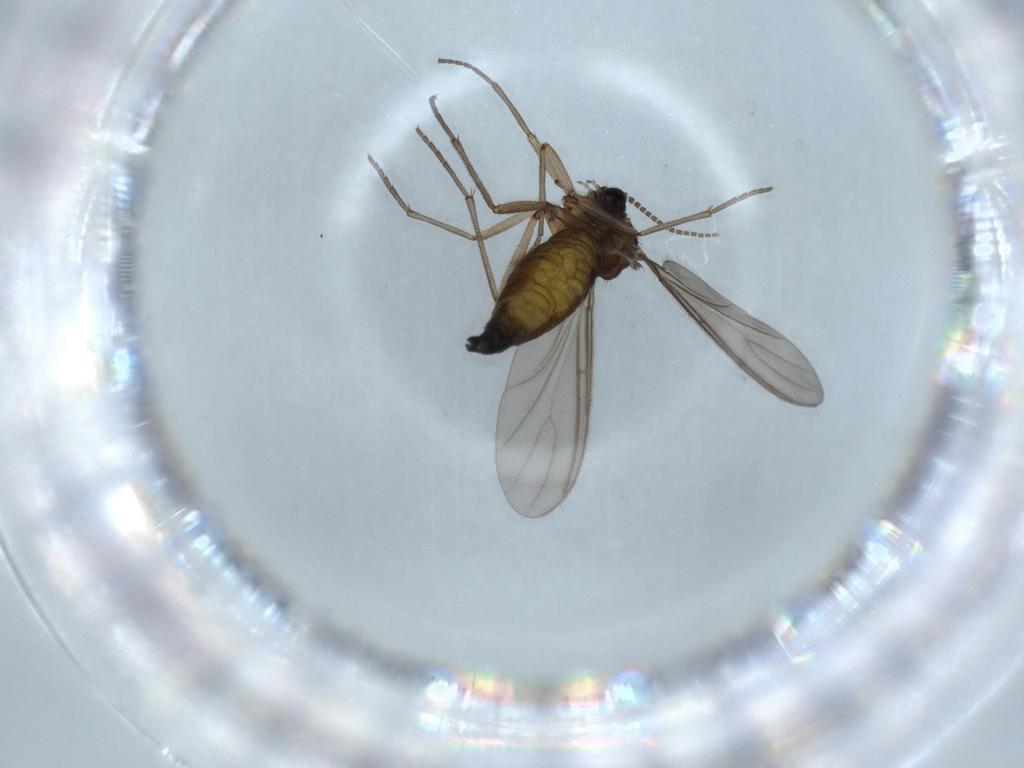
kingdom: Animalia
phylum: Arthropoda
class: Insecta
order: Diptera
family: Sciaridae
